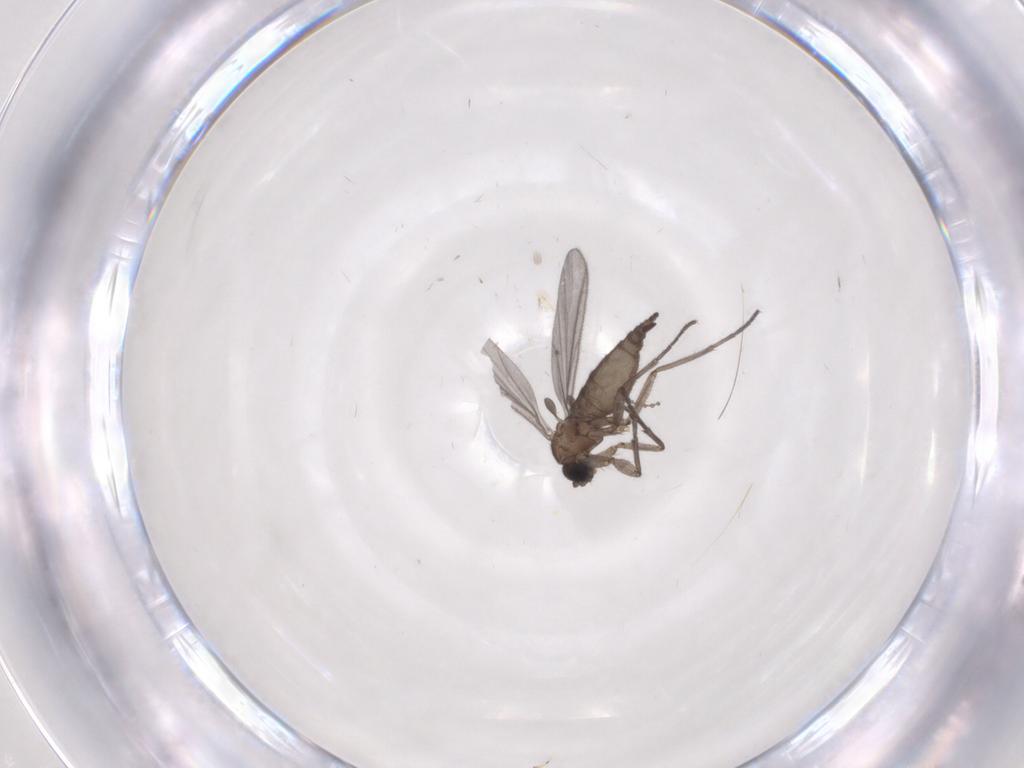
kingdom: Animalia
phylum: Arthropoda
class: Insecta
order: Diptera
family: Sciaridae
